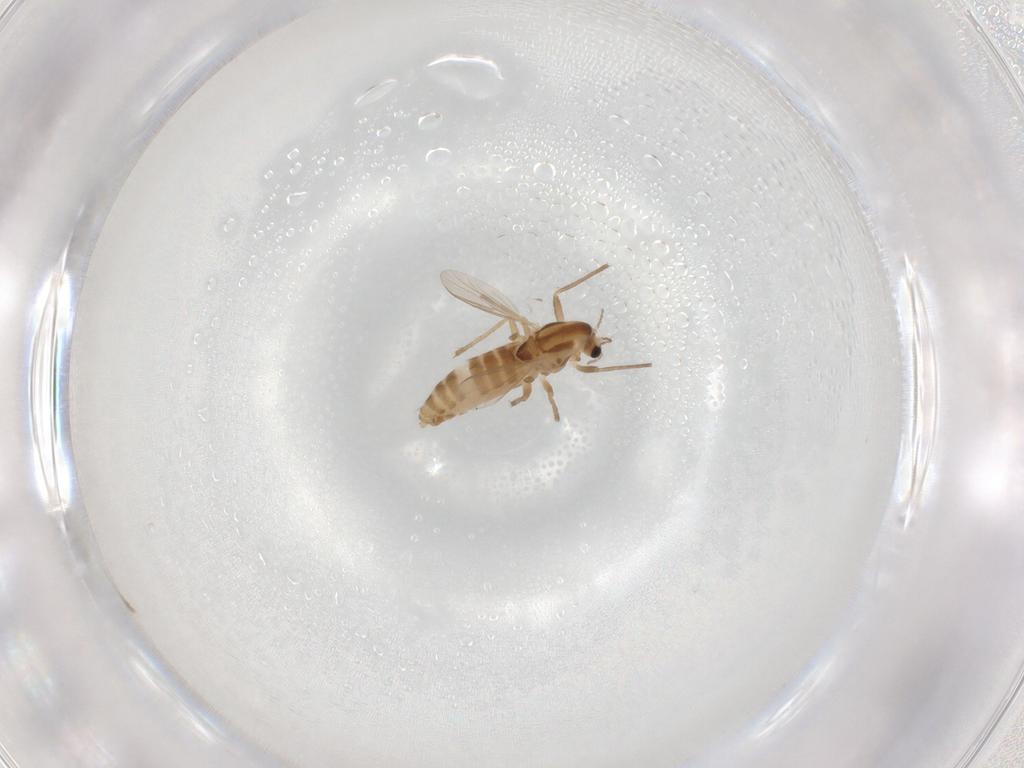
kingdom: Animalia
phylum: Arthropoda
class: Insecta
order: Diptera
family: Chironomidae
